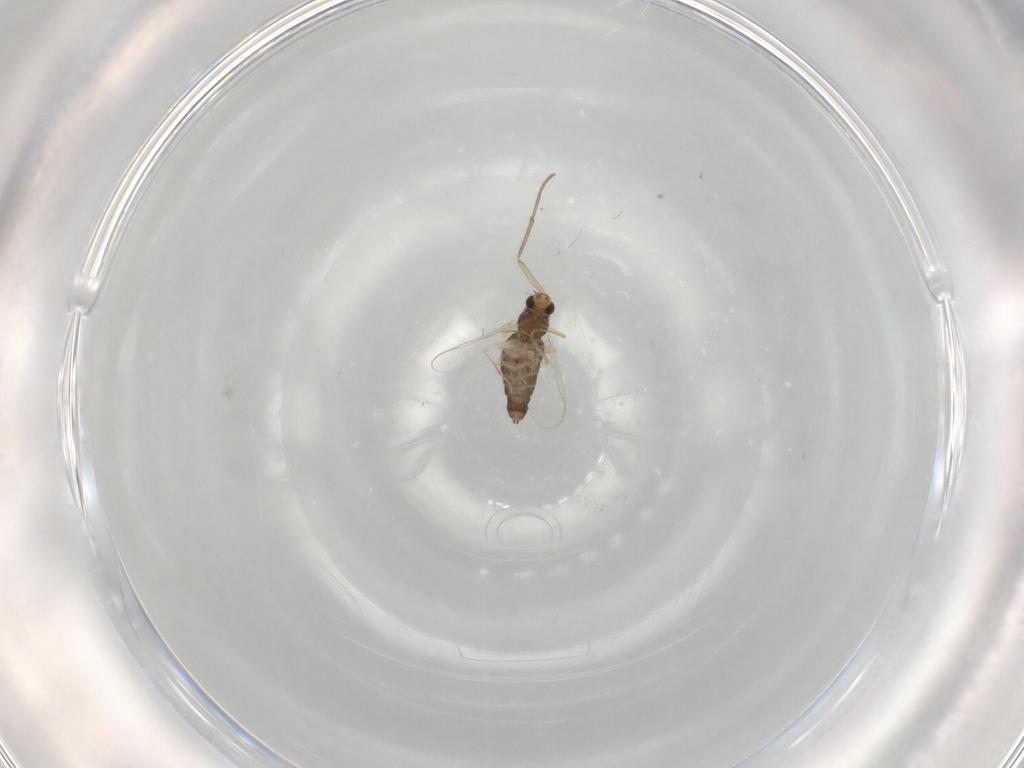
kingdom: Animalia
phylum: Arthropoda
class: Insecta
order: Diptera
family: Chironomidae
